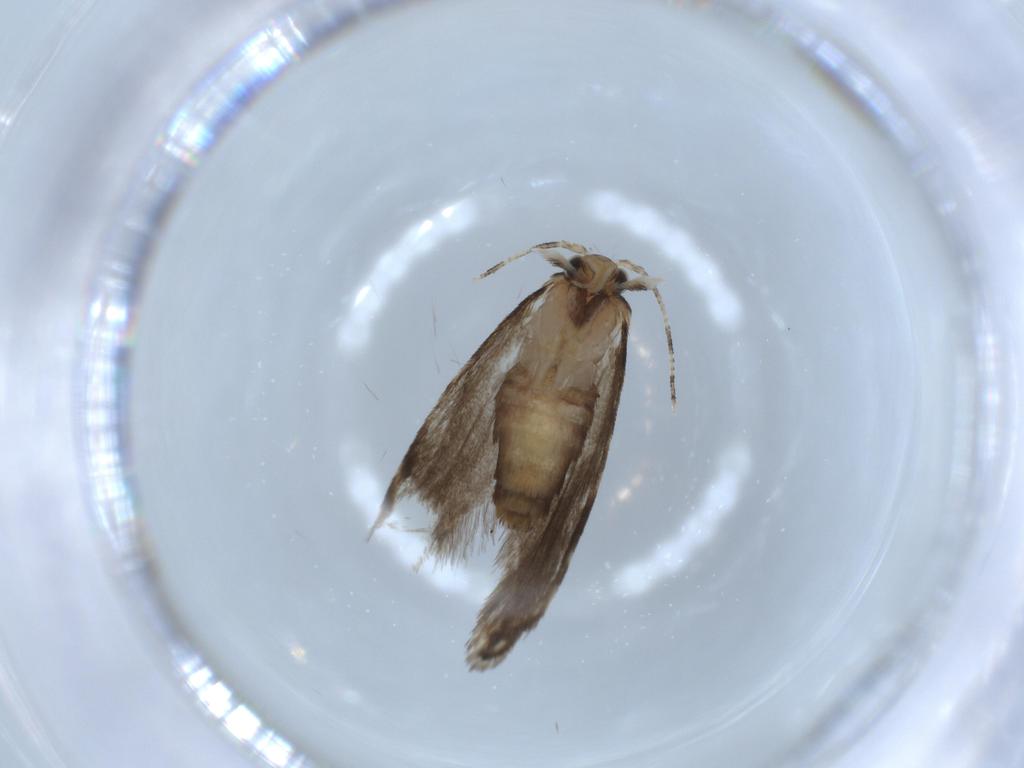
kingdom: Animalia
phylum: Arthropoda
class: Insecta
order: Lepidoptera
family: Tineidae
